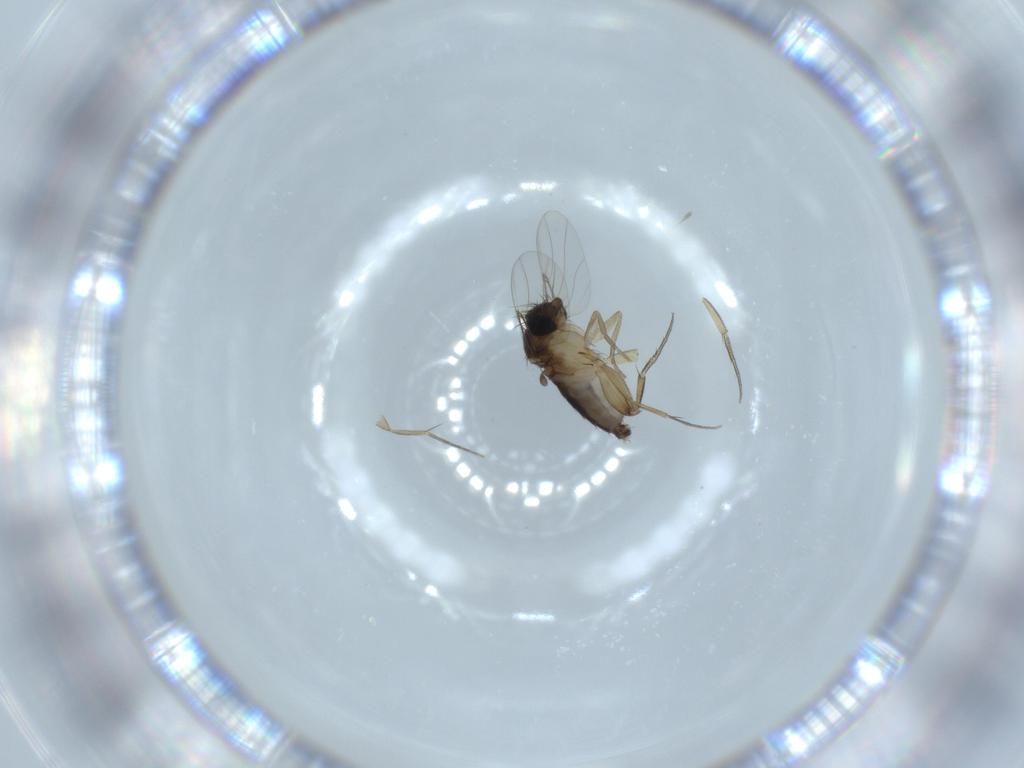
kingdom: Animalia
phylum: Arthropoda
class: Insecta
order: Diptera
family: Phoridae
